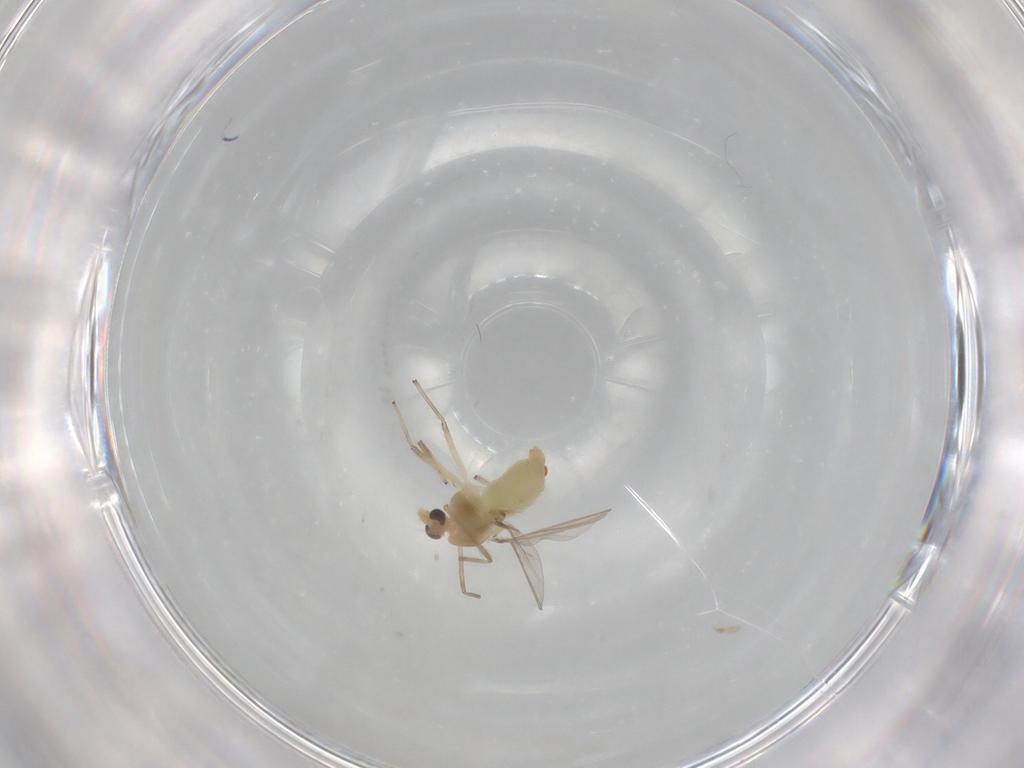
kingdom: Animalia
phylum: Arthropoda
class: Insecta
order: Diptera
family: Chironomidae
